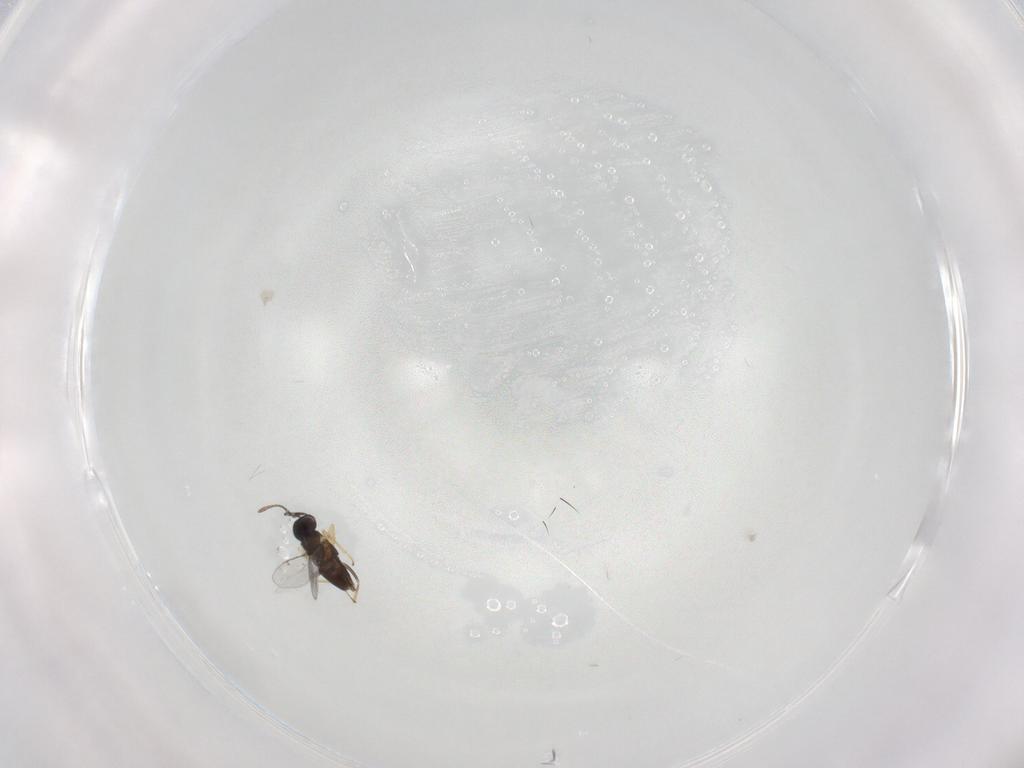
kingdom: Animalia
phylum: Arthropoda
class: Insecta
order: Hymenoptera
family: Encyrtidae
